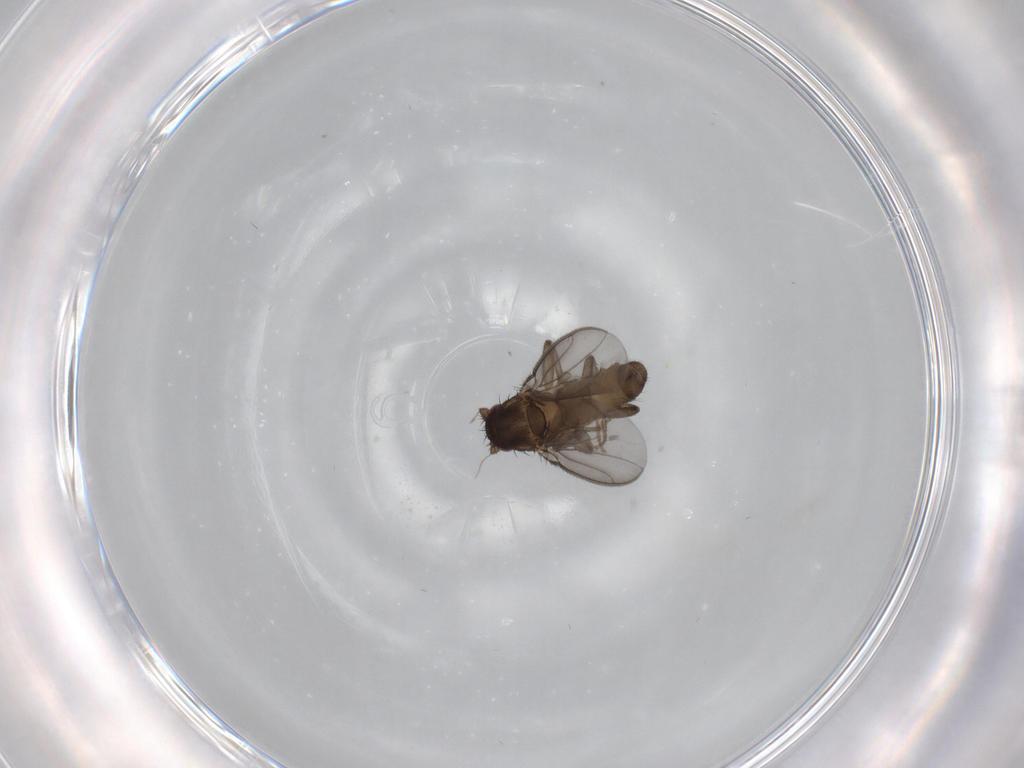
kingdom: Animalia
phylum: Arthropoda
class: Insecta
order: Diptera
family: Sphaeroceridae
